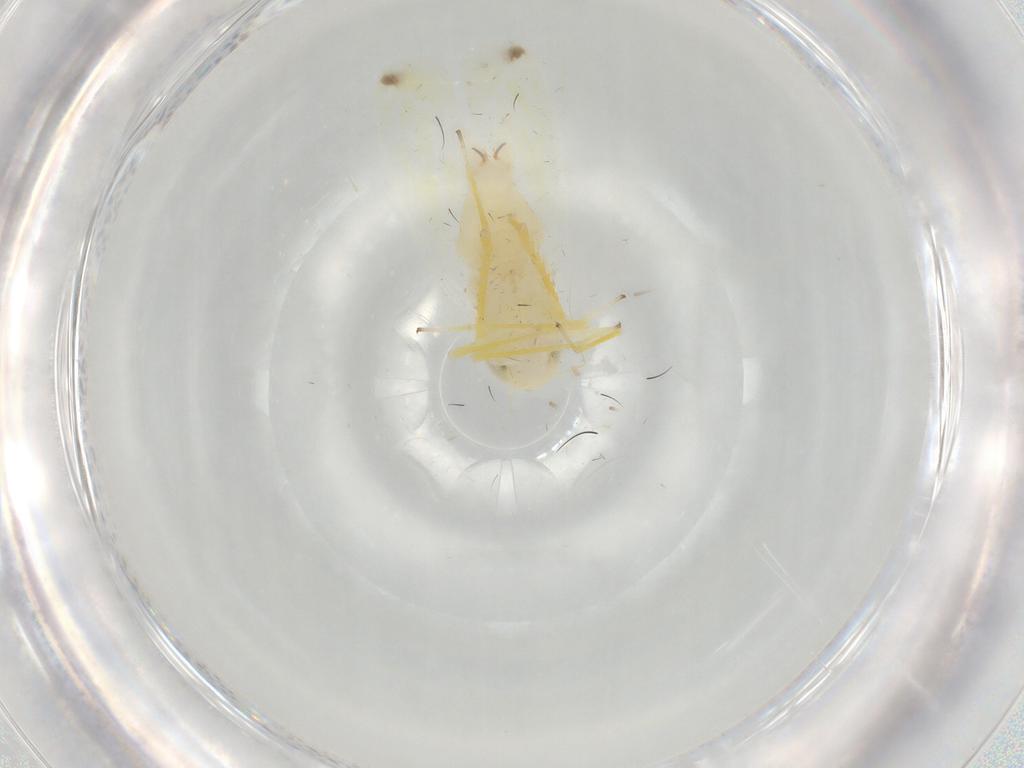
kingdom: Animalia
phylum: Arthropoda
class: Insecta
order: Hemiptera
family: Cicadellidae
